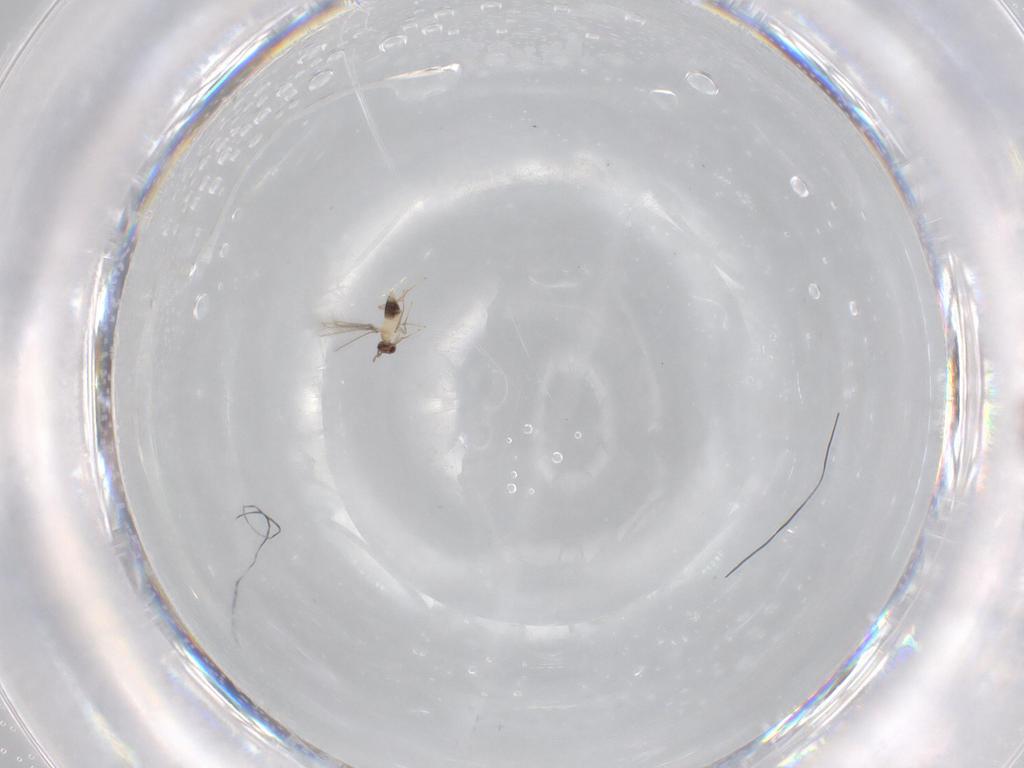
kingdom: Animalia
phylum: Arthropoda
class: Insecta
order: Hymenoptera
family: Mymaridae
